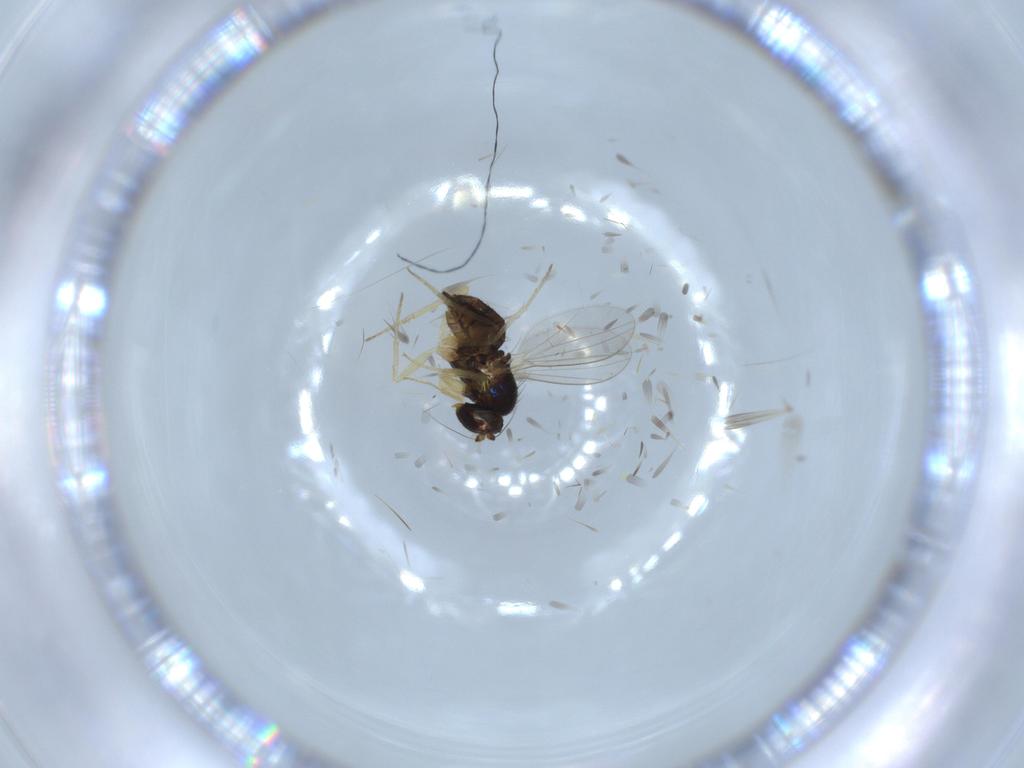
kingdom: Animalia
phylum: Arthropoda
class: Insecta
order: Diptera
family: Dolichopodidae
